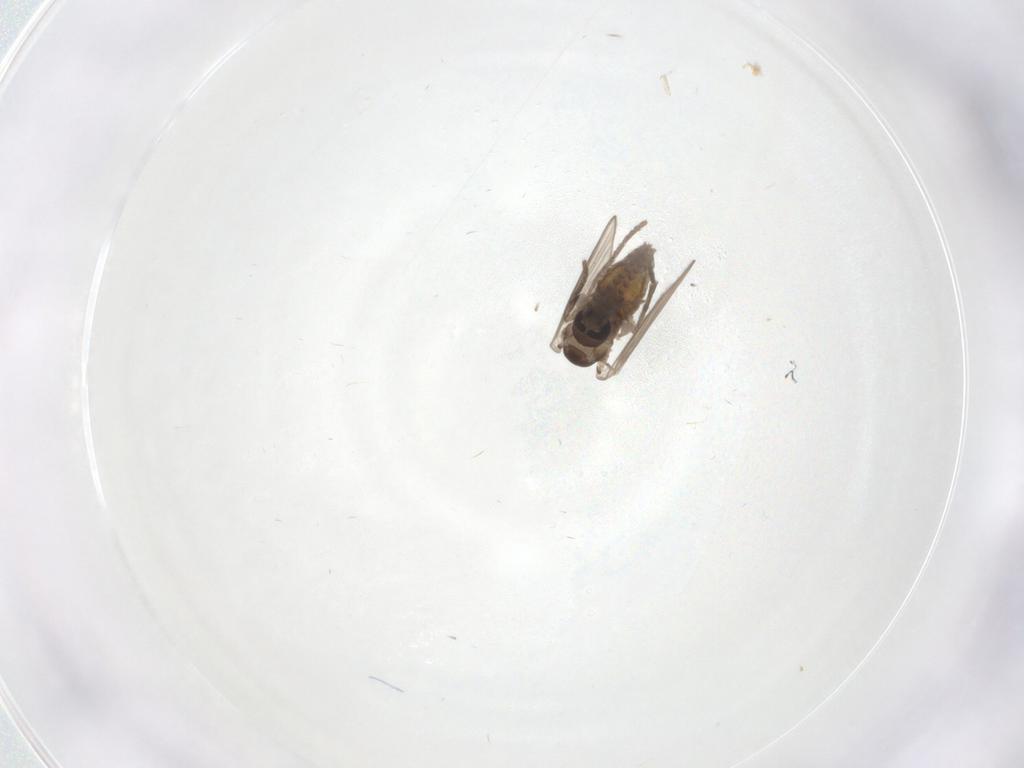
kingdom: Animalia
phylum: Arthropoda
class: Insecta
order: Diptera
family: Psychodidae
